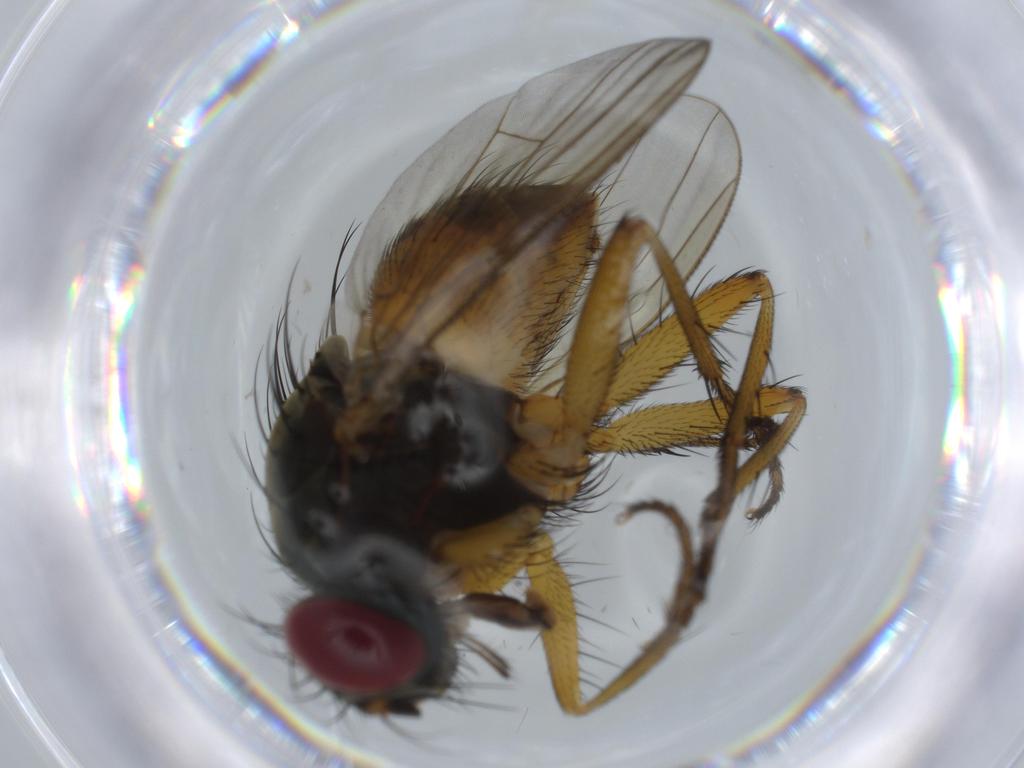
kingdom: Animalia
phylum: Arthropoda
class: Insecta
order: Diptera
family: Muscidae
